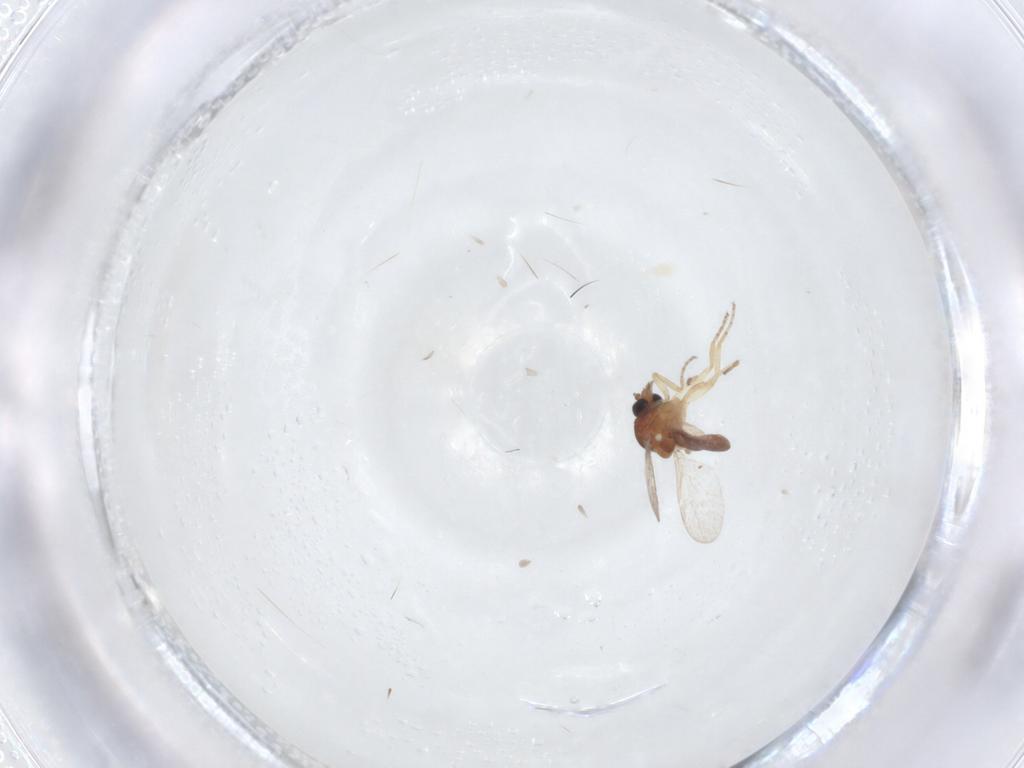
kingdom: Animalia
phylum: Arthropoda
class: Insecta
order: Diptera
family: Ceratopogonidae
